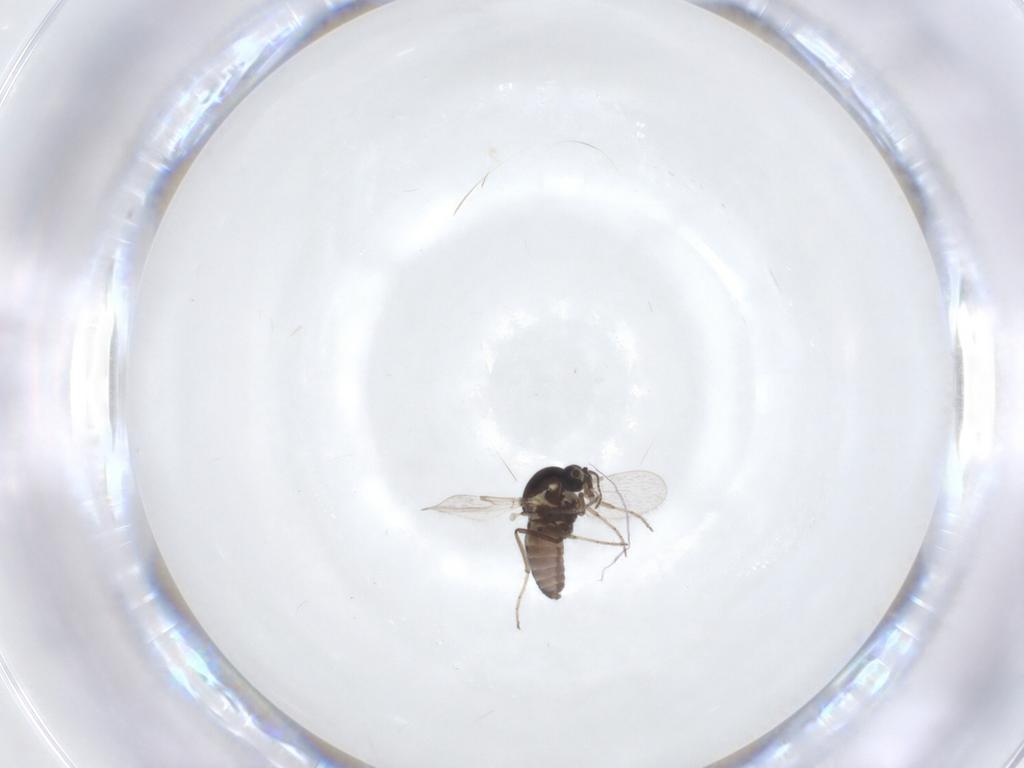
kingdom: Animalia
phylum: Arthropoda
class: Insecta
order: Diptera
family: Ceratopogonidae
